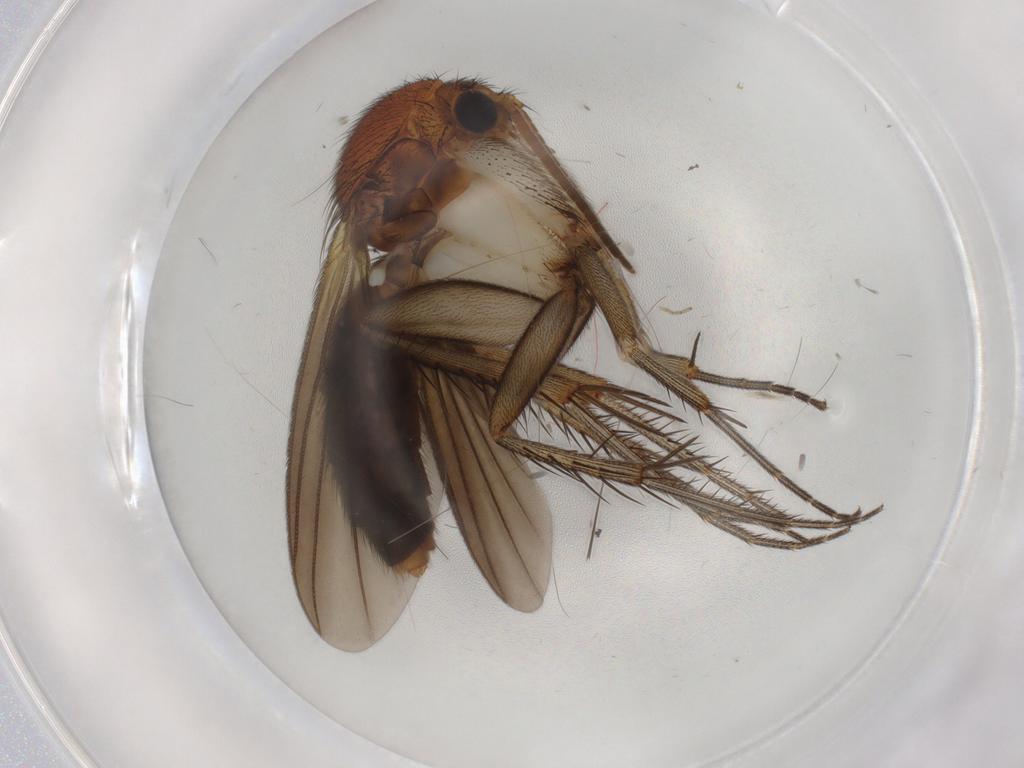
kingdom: Animalia
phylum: Arthropoda
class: Insecta
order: Diptera
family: Mycetophilidae
